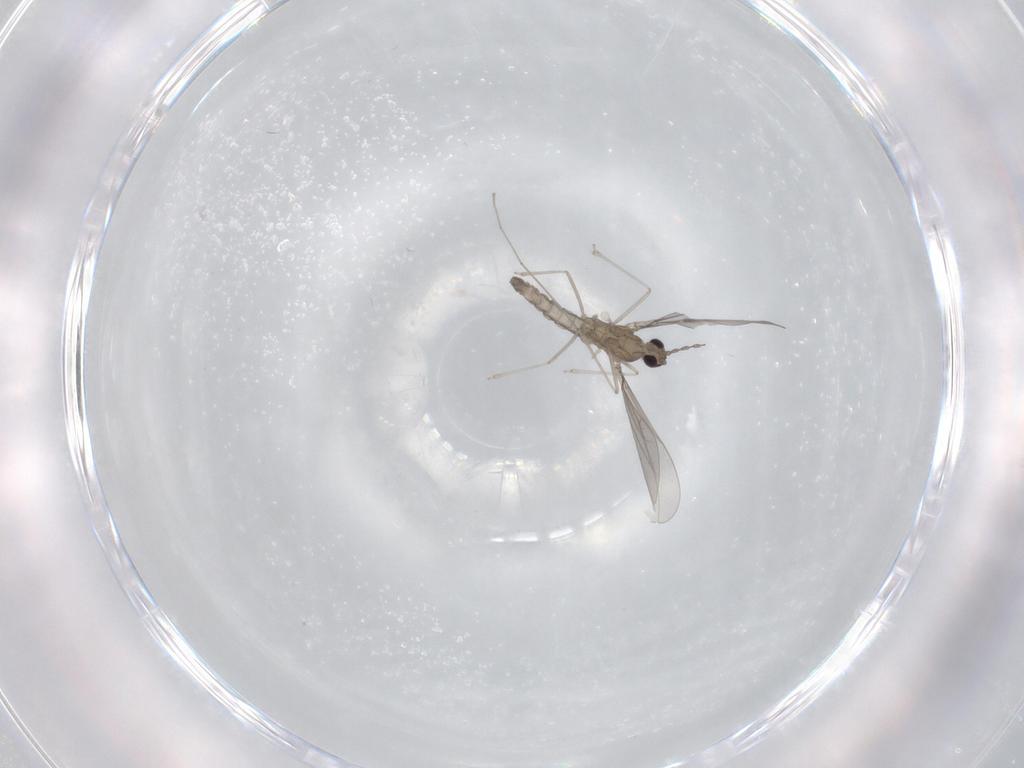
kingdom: Animalia
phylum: Arthropoda
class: Insecta
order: Diptera
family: Cecidomyiidae
